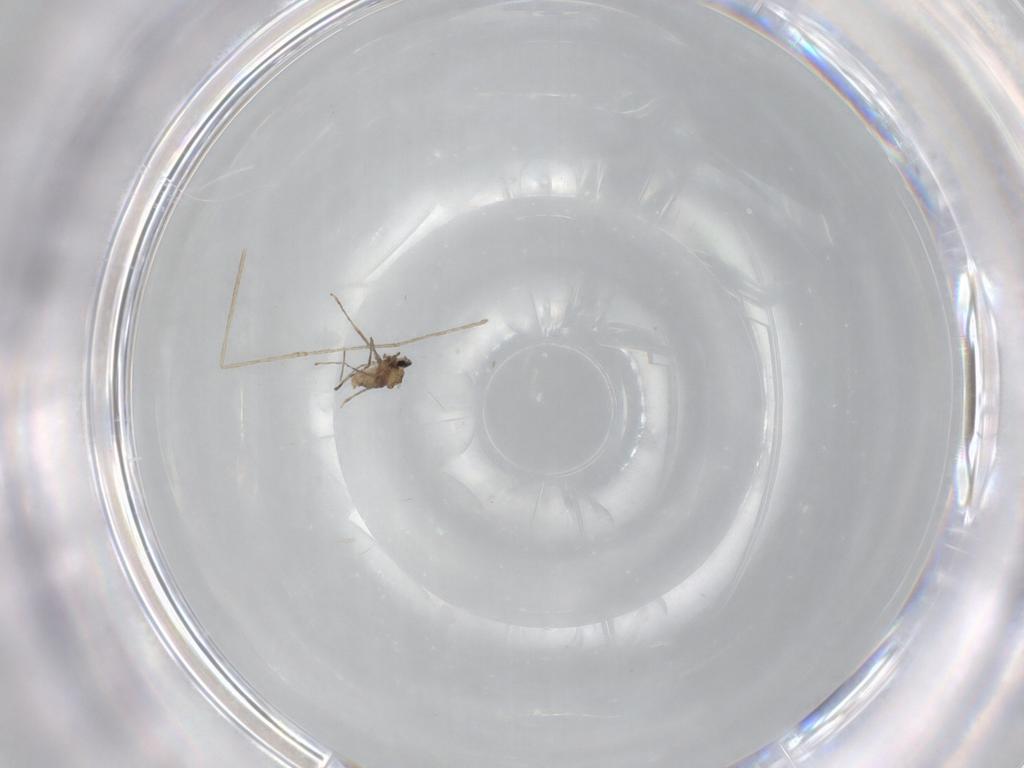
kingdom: Animalia
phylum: Arthropoda
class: Insecta
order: Diptera
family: Cecidomyiidae
